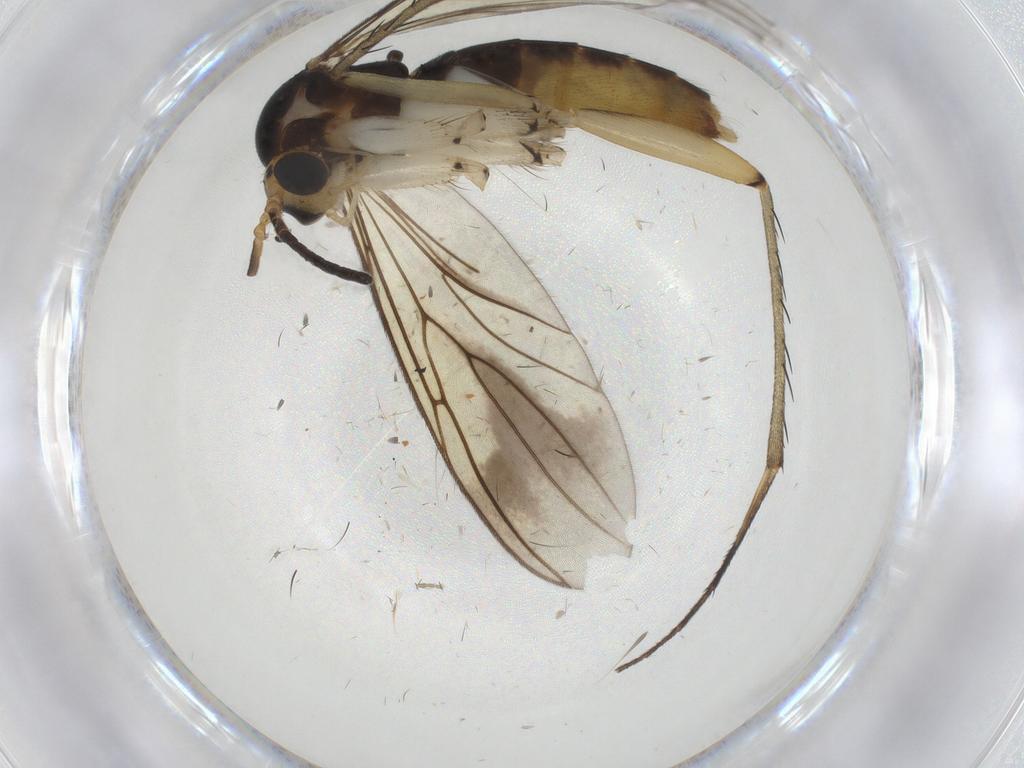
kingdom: Animalia
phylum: Arthropoda
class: Insecta
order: Diptera
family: Mycetophilidae
